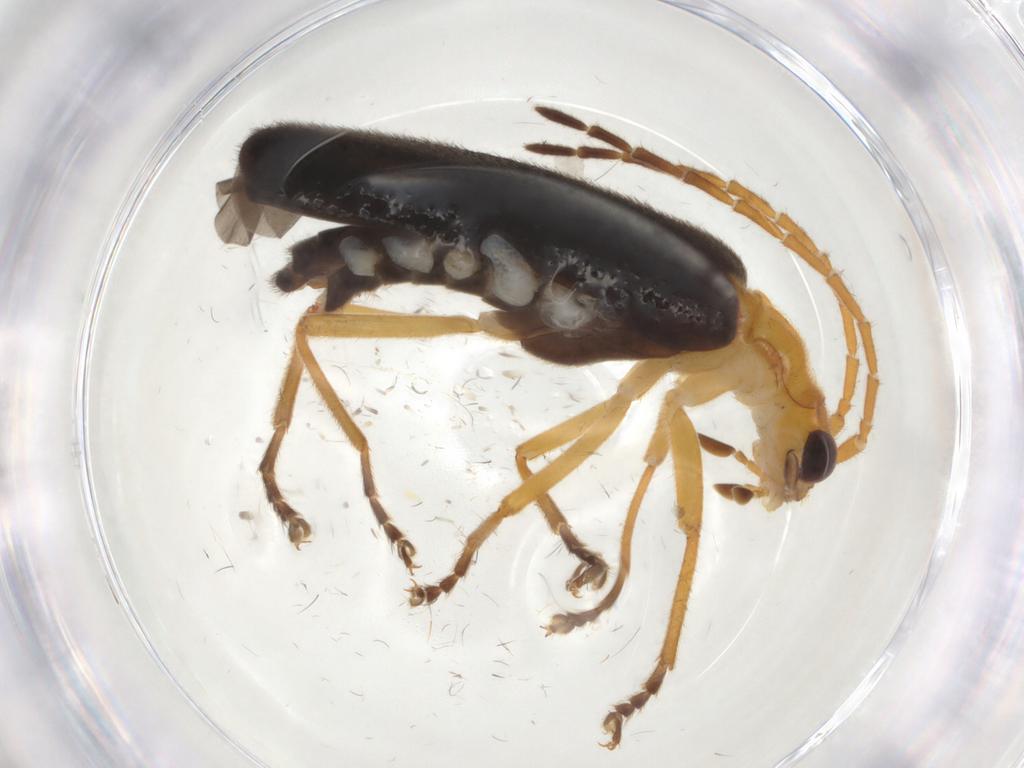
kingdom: Animalia
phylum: Arthropoda
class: Insecta
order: Coleoptera
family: Cantharidae
